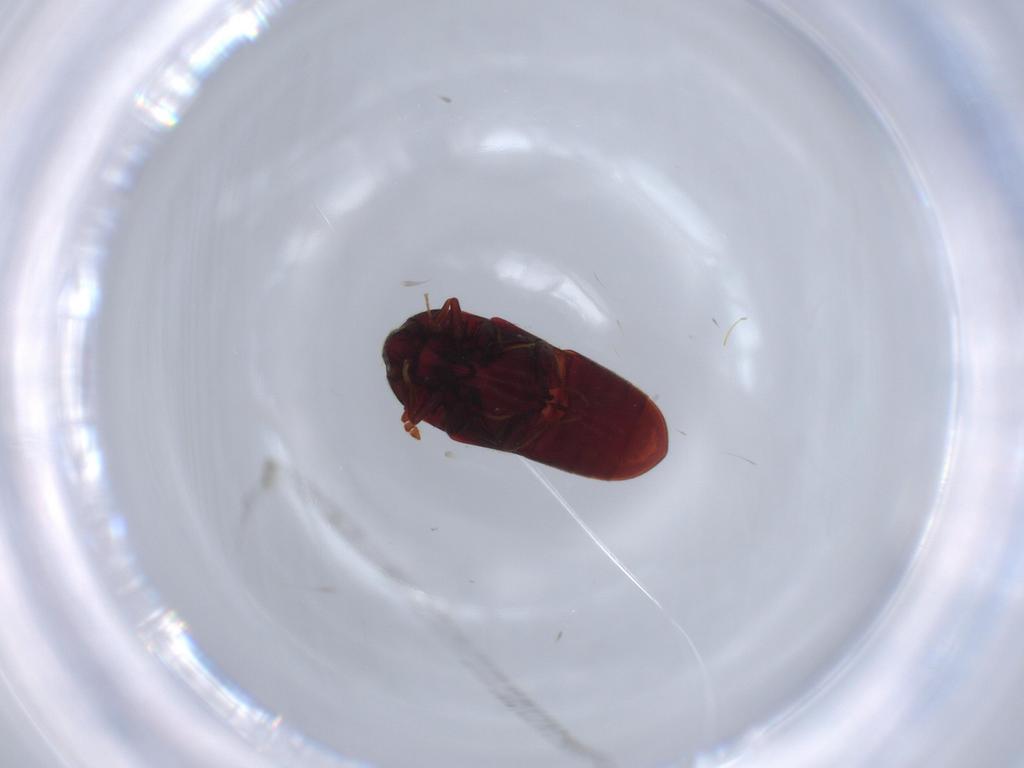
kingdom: Animalia
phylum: Arthropoda
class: Insecta
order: Coleoptera
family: Throscidae
